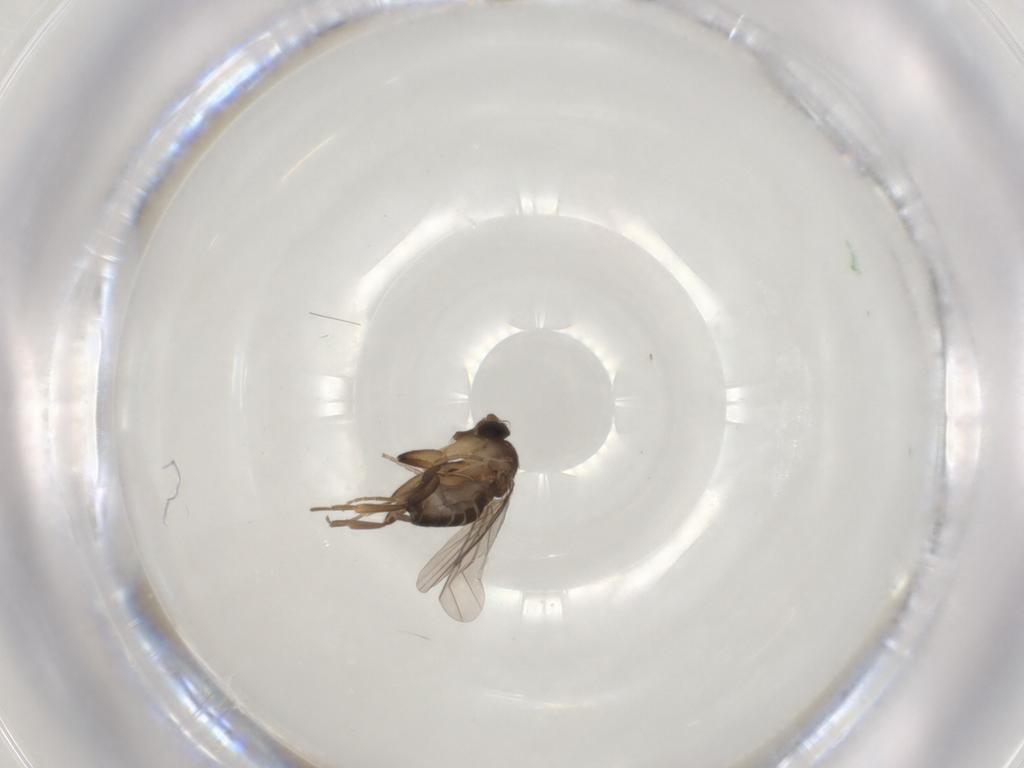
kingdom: Animalia
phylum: Arthropoda
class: Insecta
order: Diptera
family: Phoridae
